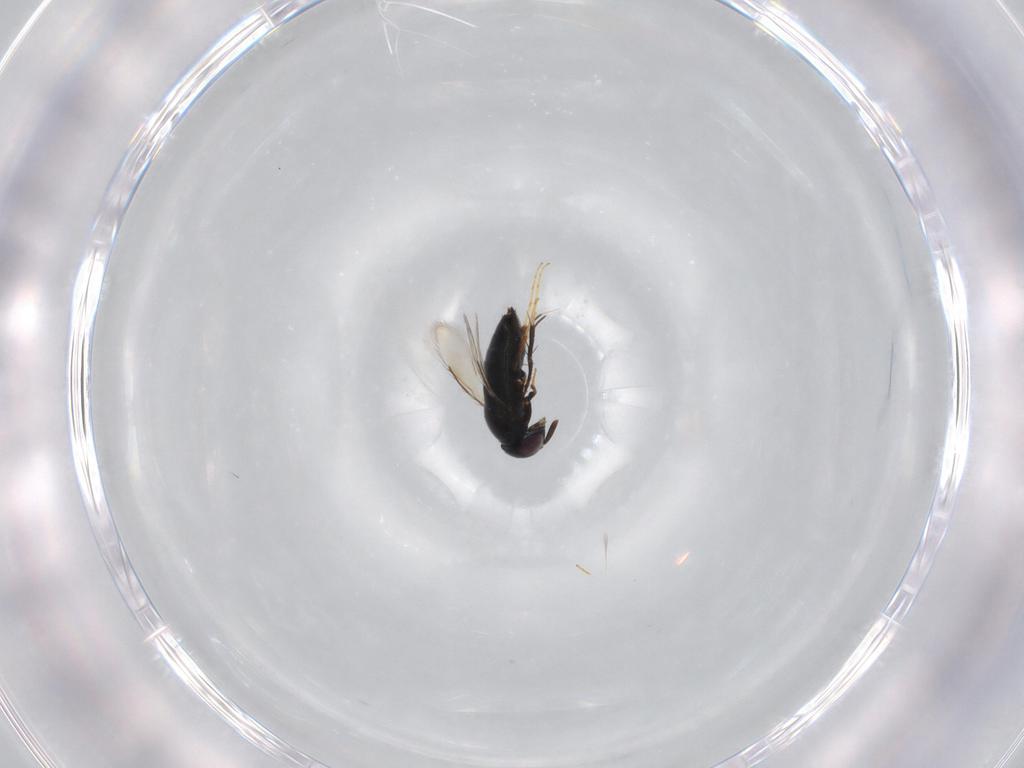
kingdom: Animalia
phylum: Arthropoda
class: Insecta
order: Hymenoptera
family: Signiphoridae
